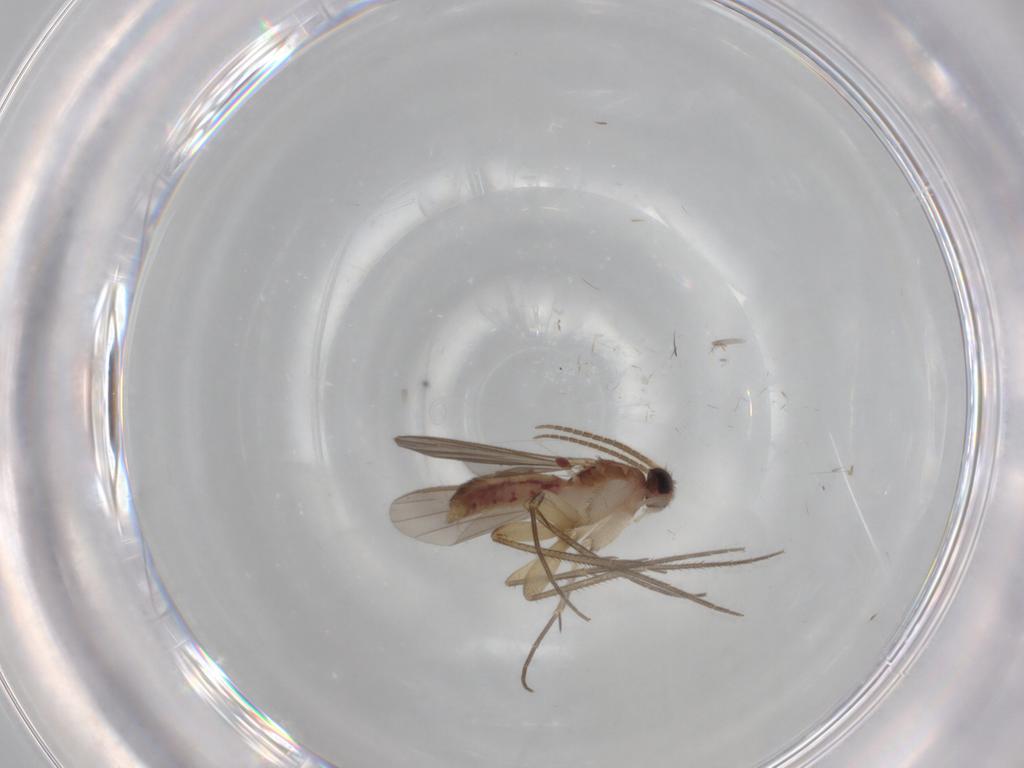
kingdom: Animalia
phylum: Arthropoda
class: Insecta
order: Diptera
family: Mycetophilidae
